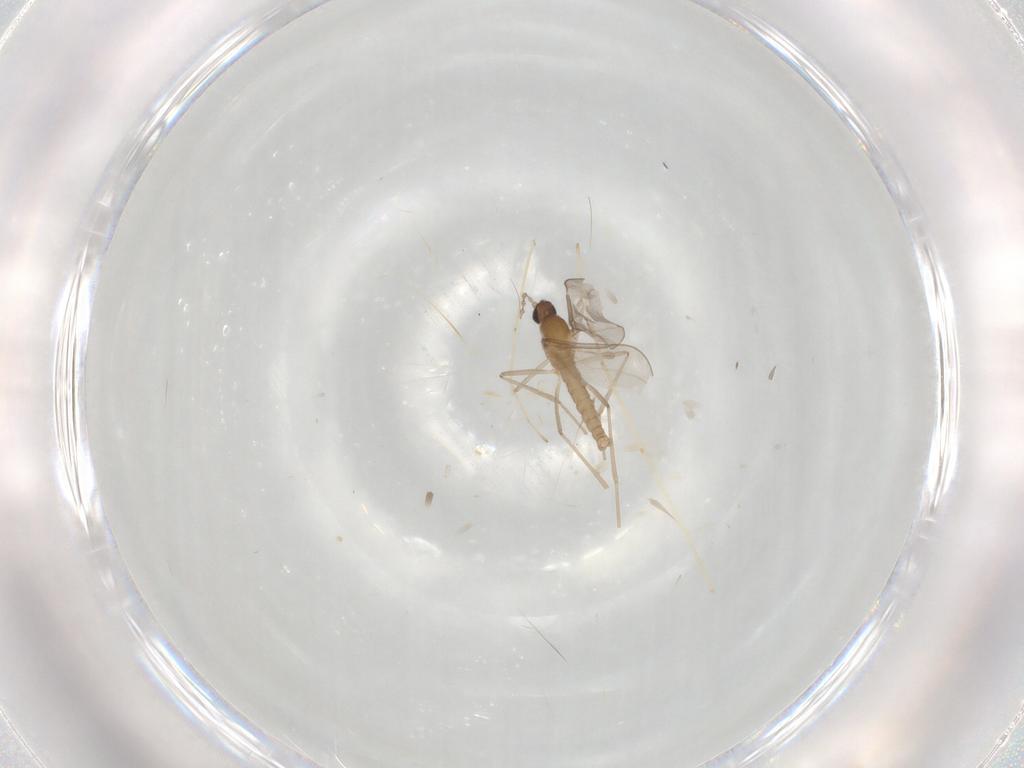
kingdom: Animalia
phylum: Arthropoda
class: Insecta
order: Diptera
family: Cecidomyiidae
